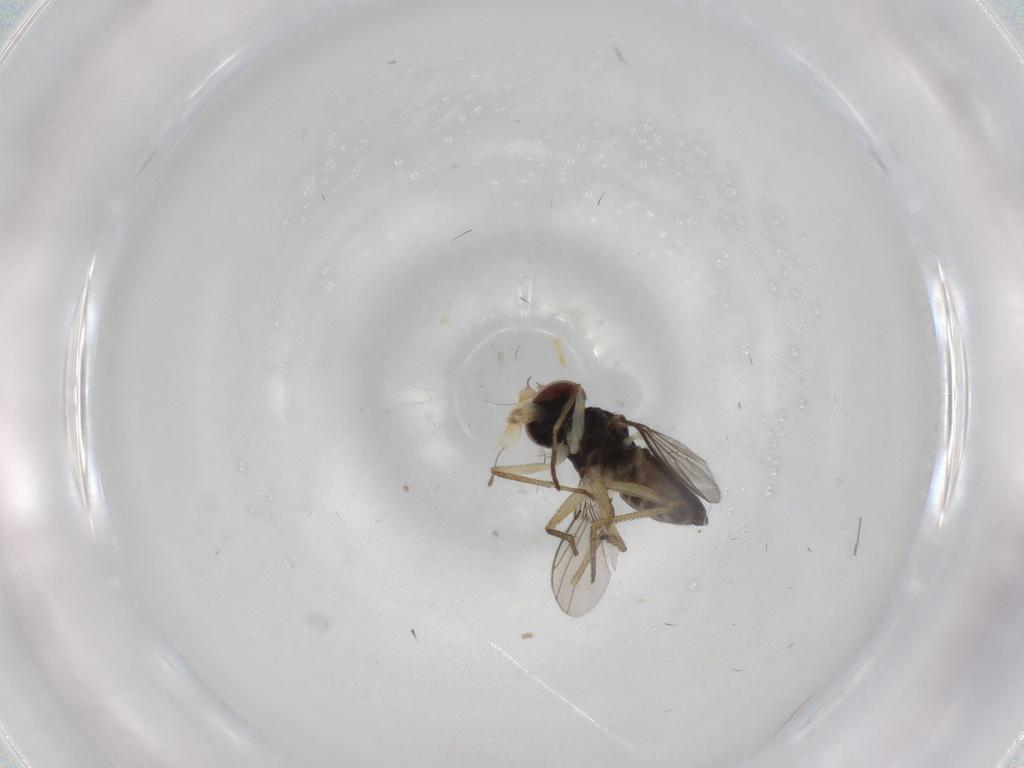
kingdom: Animalia
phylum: Arthropoda
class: Insecta
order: Diptera
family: Dolichopodidae
